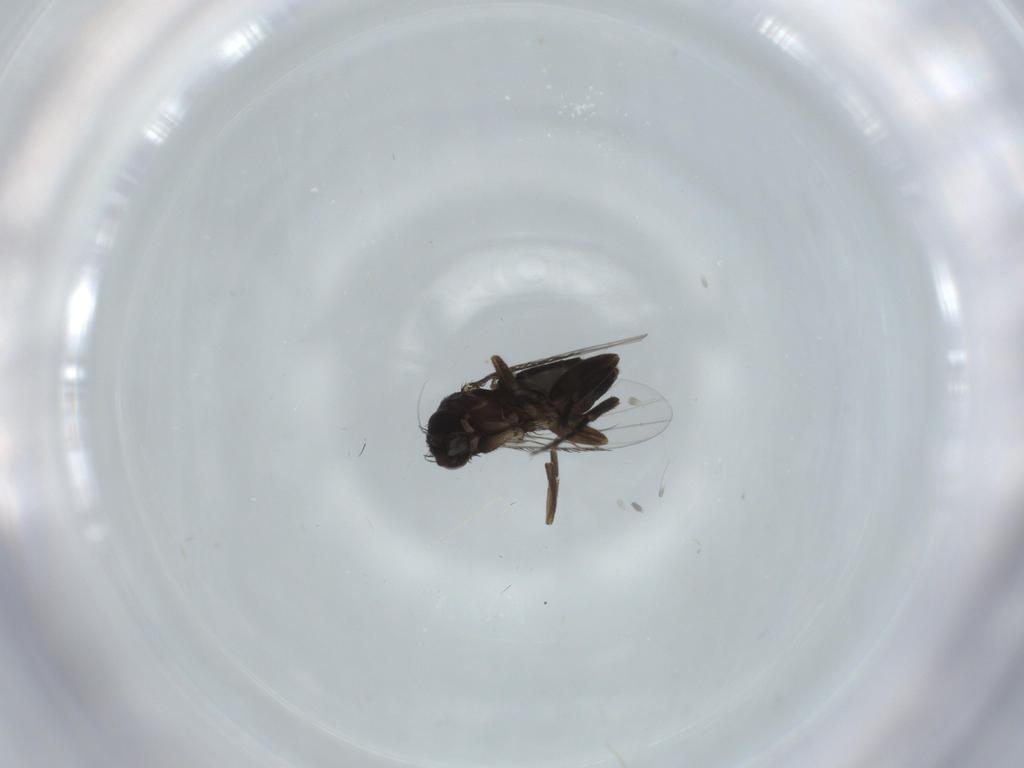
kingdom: Animalia
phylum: Arthropoda
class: Insecta
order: Diptera
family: Phoridae
